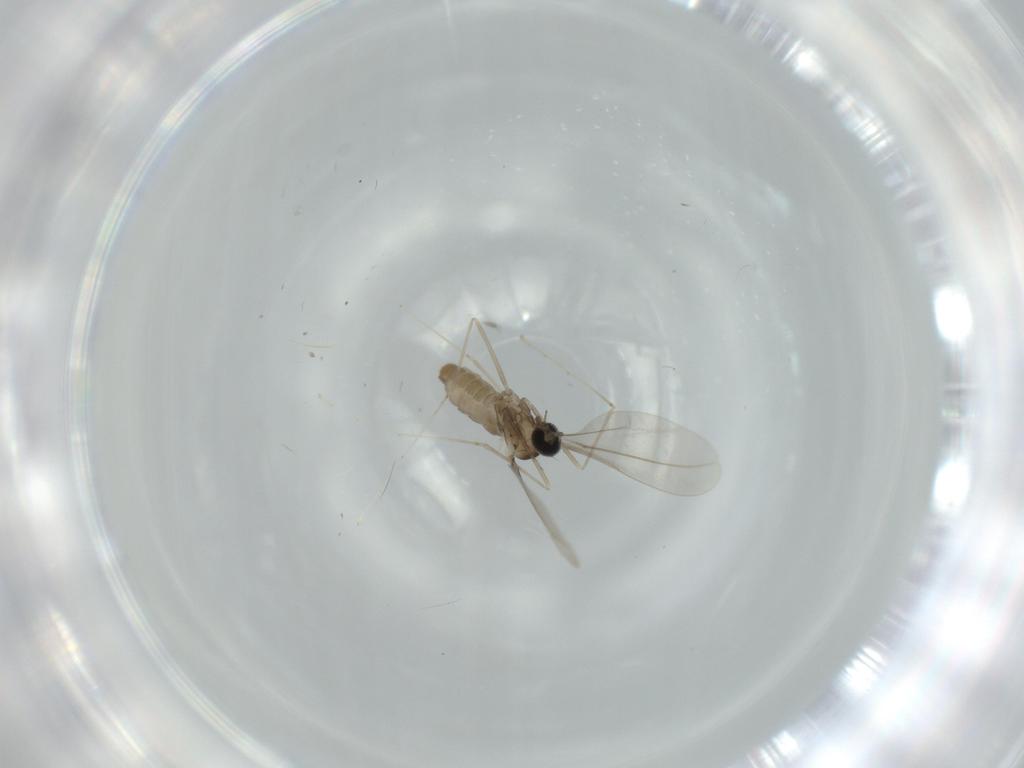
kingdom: Animalia
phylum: Arthropoda
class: Insecta
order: Diptera
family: Cecidomyiidae
